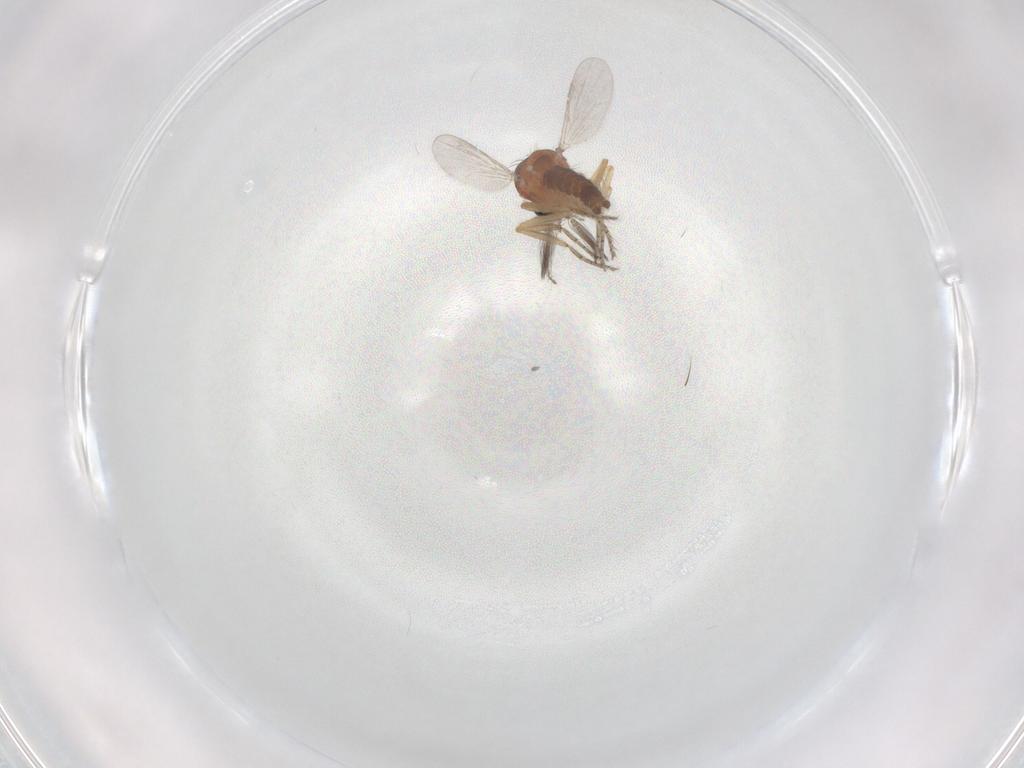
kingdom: Animalia
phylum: Arthropoda
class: Insecta
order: Diptera
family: Ceratopogonidae
